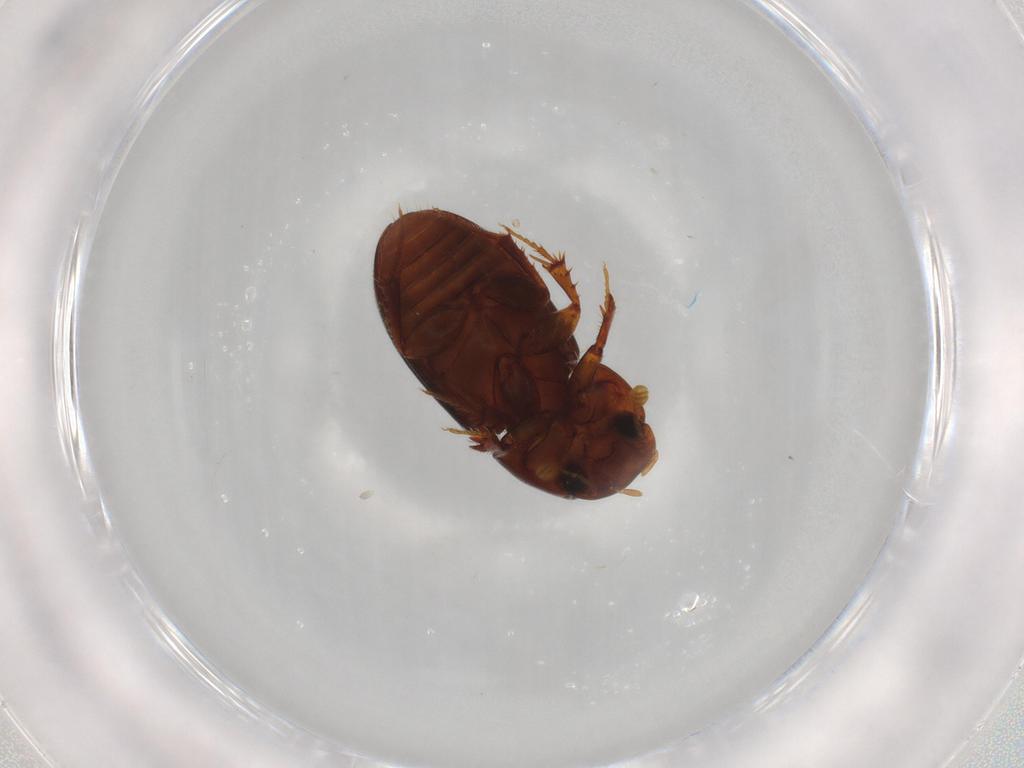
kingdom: Animalia
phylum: Arthropoda
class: Insecta
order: Coleoptera
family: Scarabaeidae
